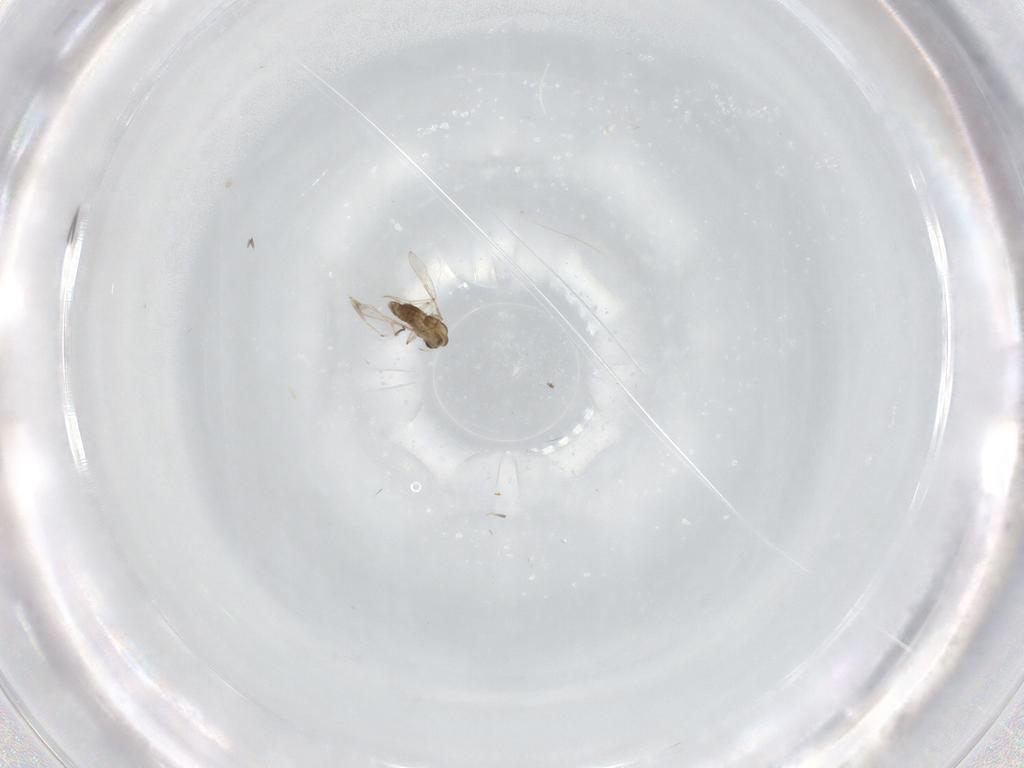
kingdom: Animalia
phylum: Arthropoda
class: Insecta
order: Diptera
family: Chironomidae
